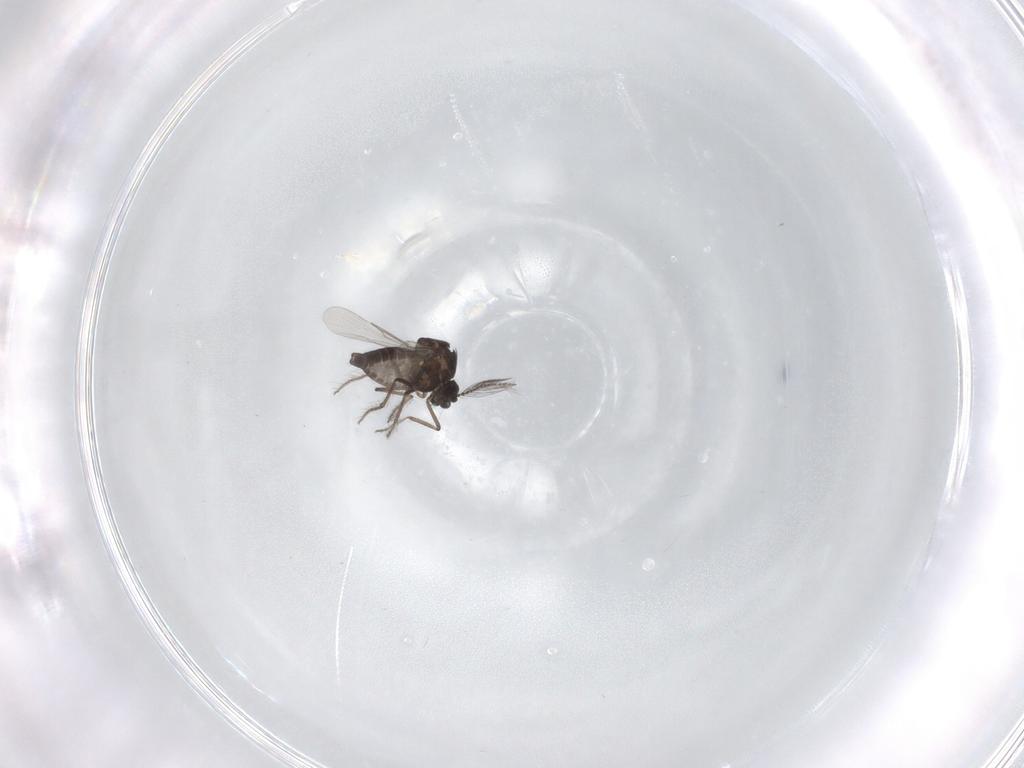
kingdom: Animalia
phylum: Arthropoda
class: Insecta
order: Diptera
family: Ceratopogonidae
